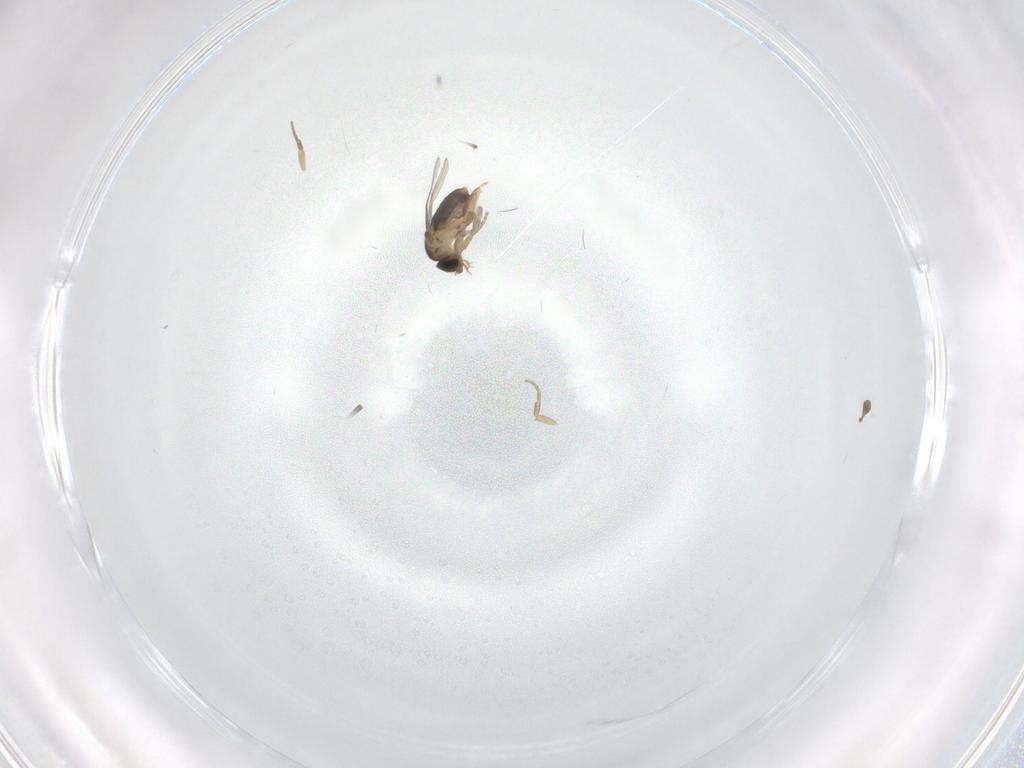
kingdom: Animalia
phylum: Arthropoda
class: Insecta
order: Diptera
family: Phoridae
